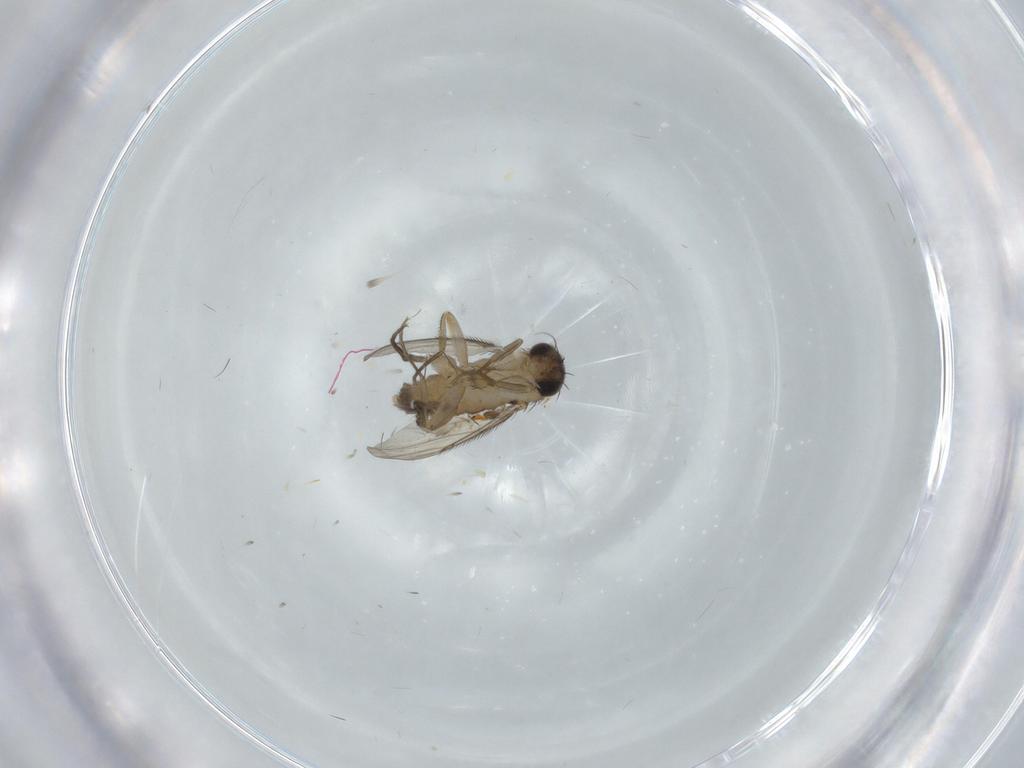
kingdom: Animalia
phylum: Arthropoda
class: Insecta
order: Diptera
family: Phoridae
